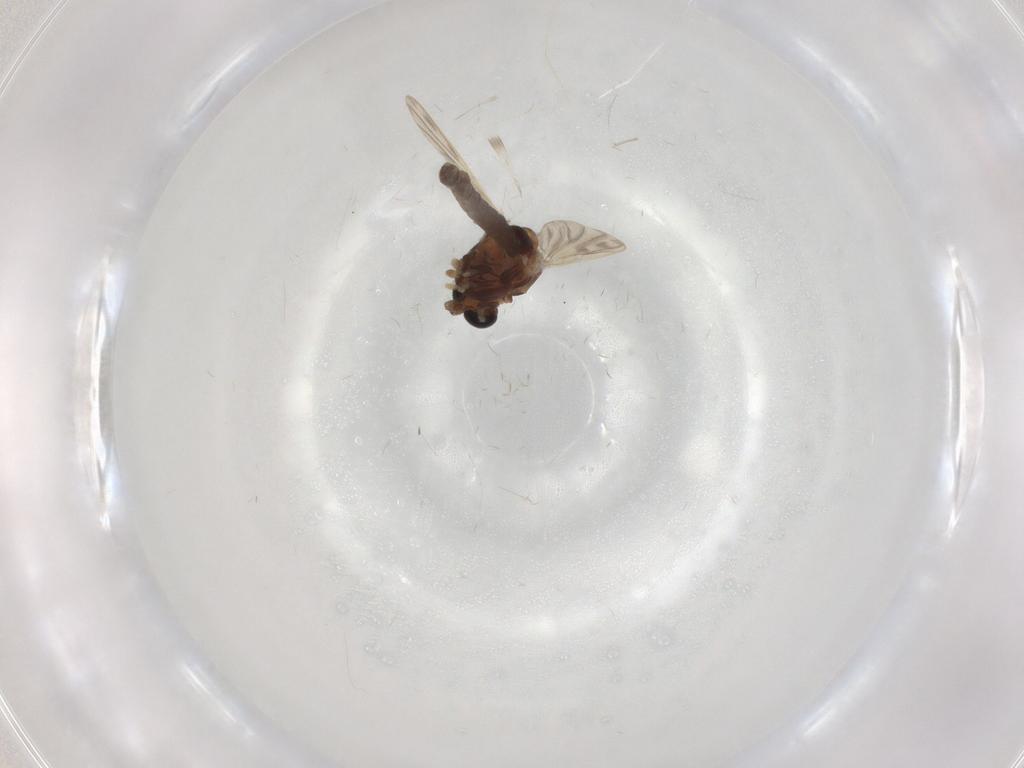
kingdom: Animalia
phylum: Arthropoda
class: Insecta
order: Diptera
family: Chironomidae
